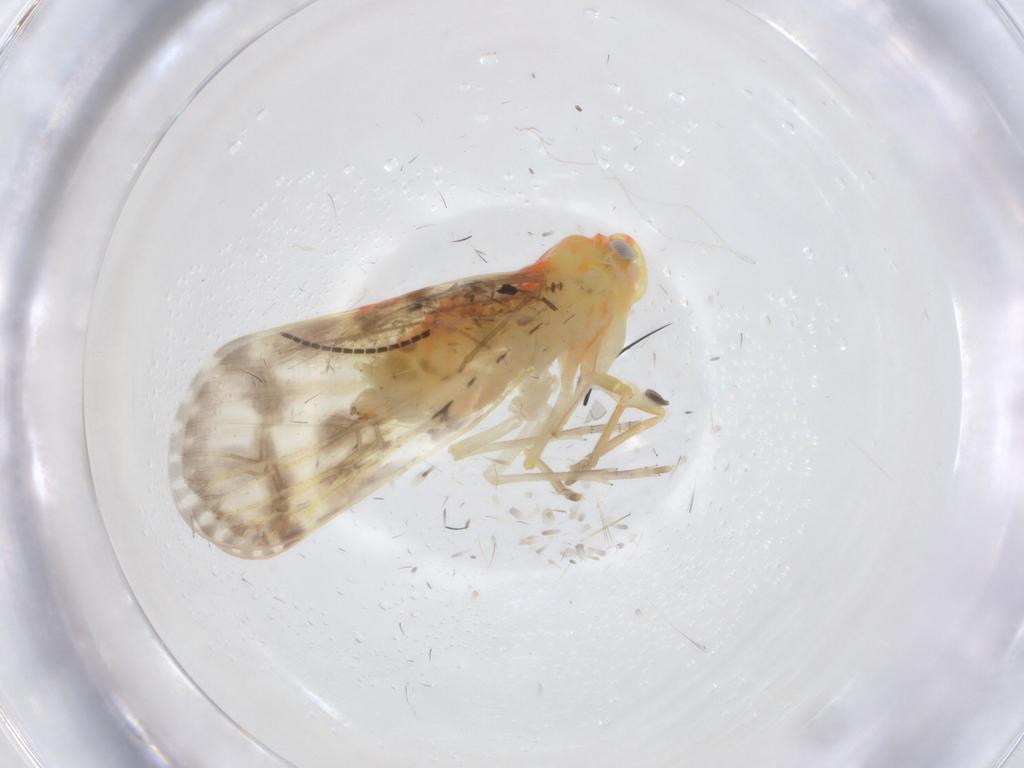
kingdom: Animalia
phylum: Arthropoda
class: Insecta
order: Hemiptera
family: Derbidae
